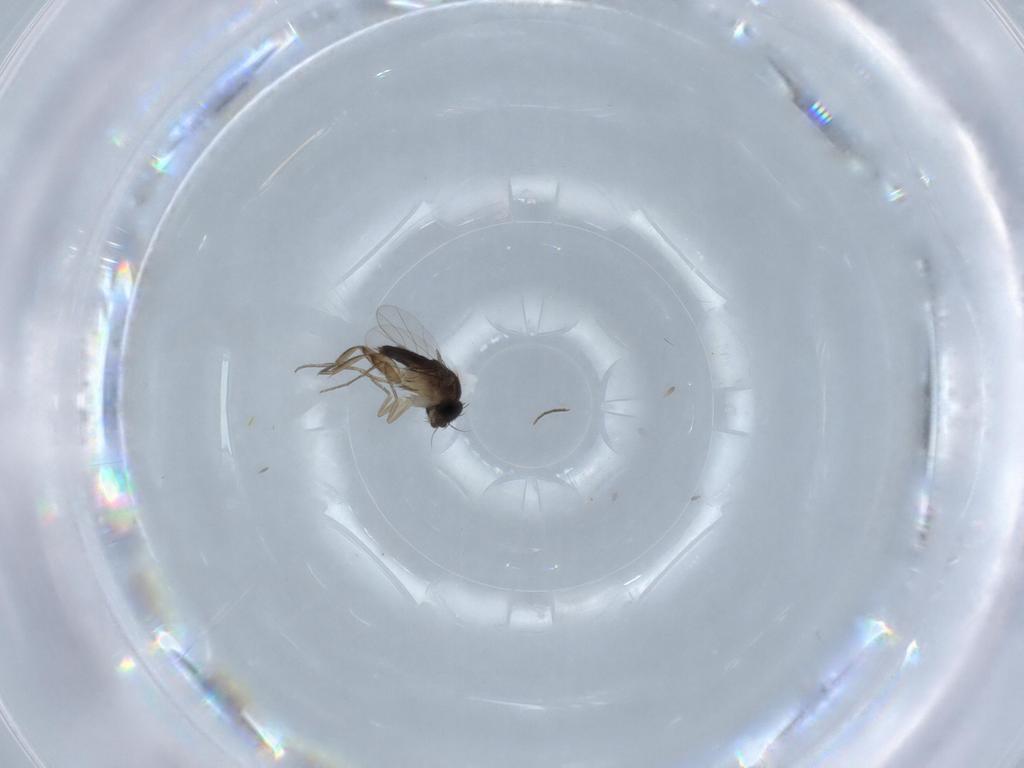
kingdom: Animalia
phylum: Arthropoda
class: Insecta
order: Diptera
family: Phoridae
